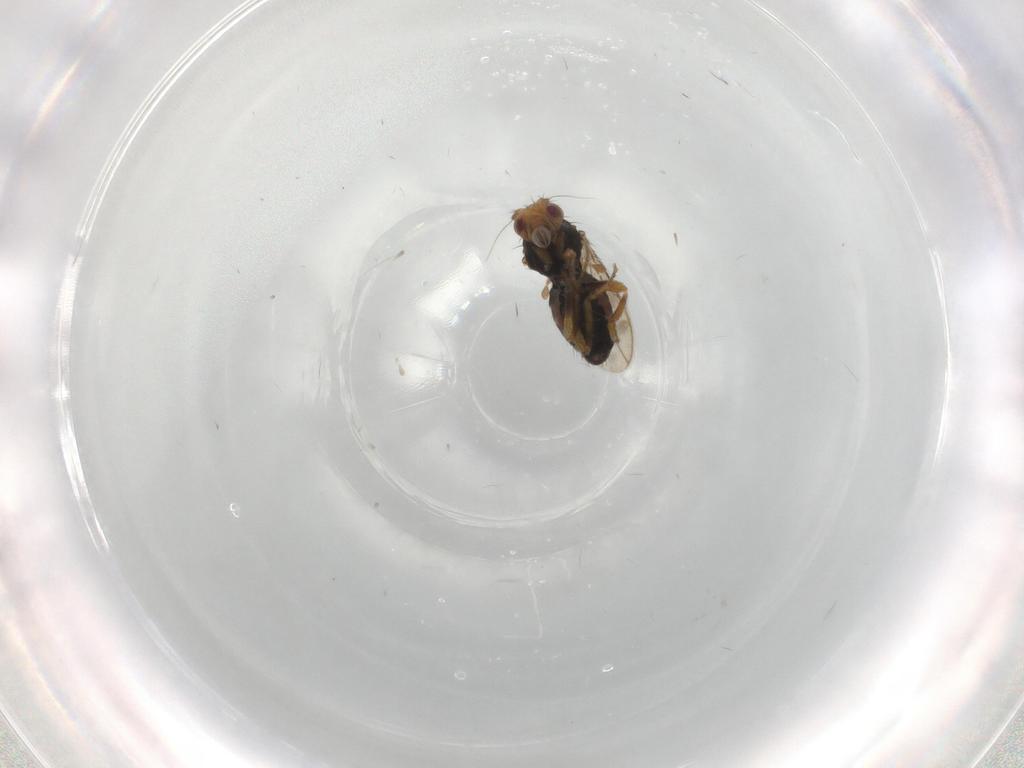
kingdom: Animalia
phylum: Arthropoda
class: Insecta
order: Diptera
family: Sphaeroceridae
